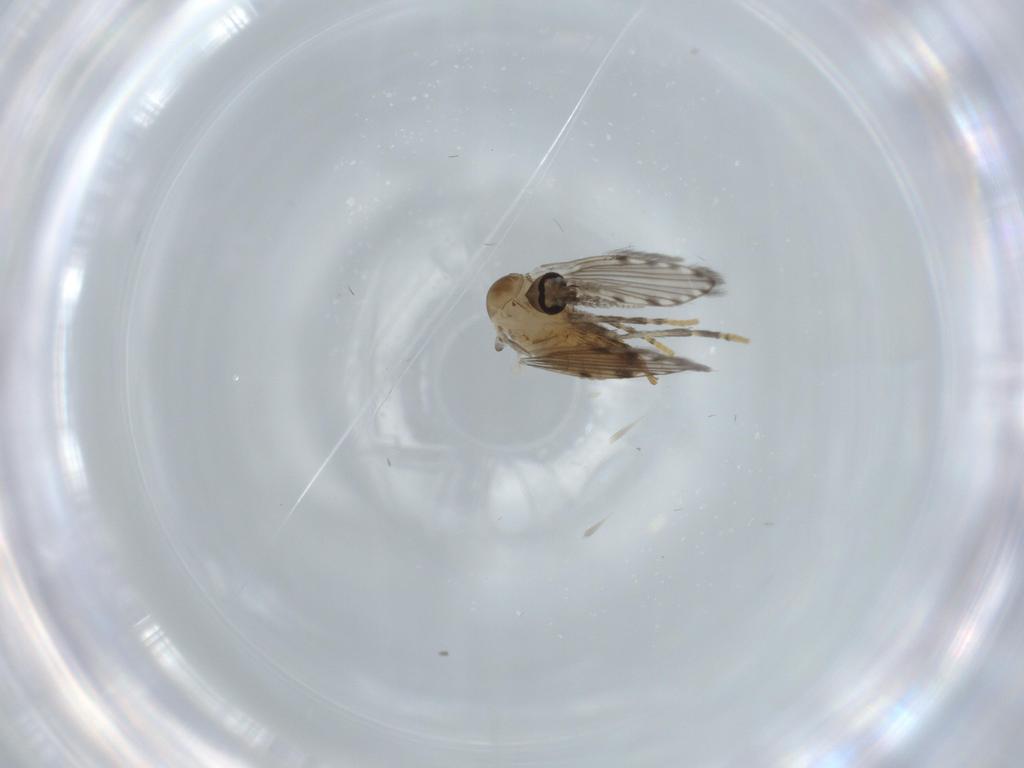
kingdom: Animalia
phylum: Arthropoda
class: Insecta
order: Diptera
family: Psychodidae
